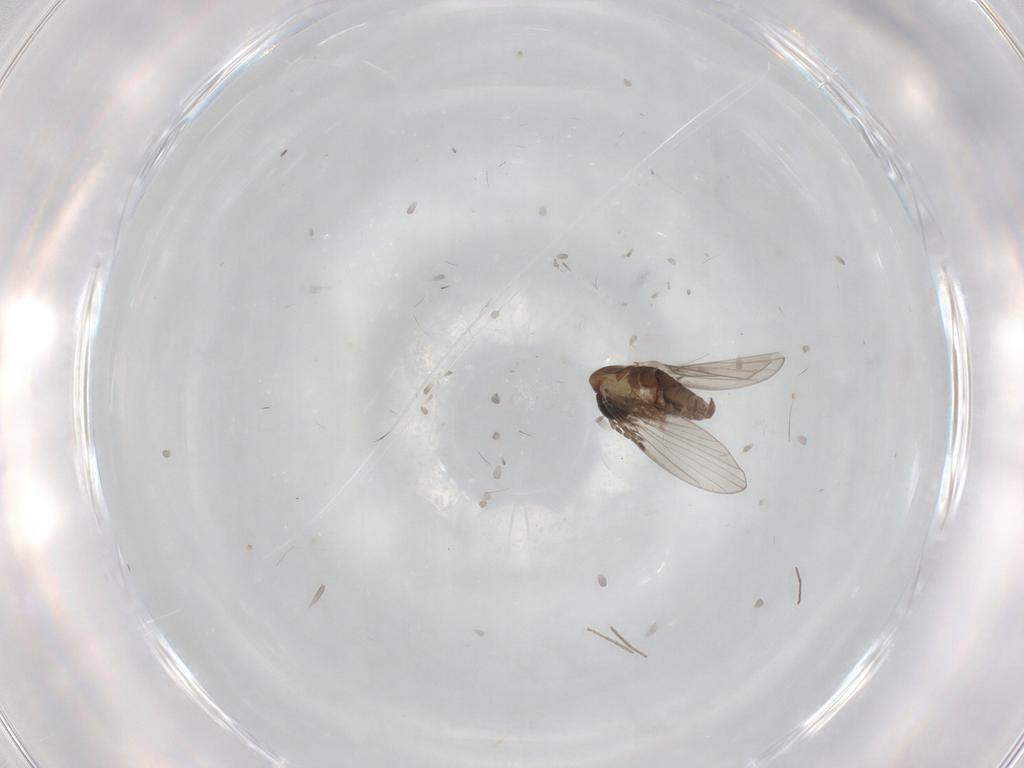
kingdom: Animalia
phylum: Arthropoda
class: Insecta
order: Diptera
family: Chironomidae
